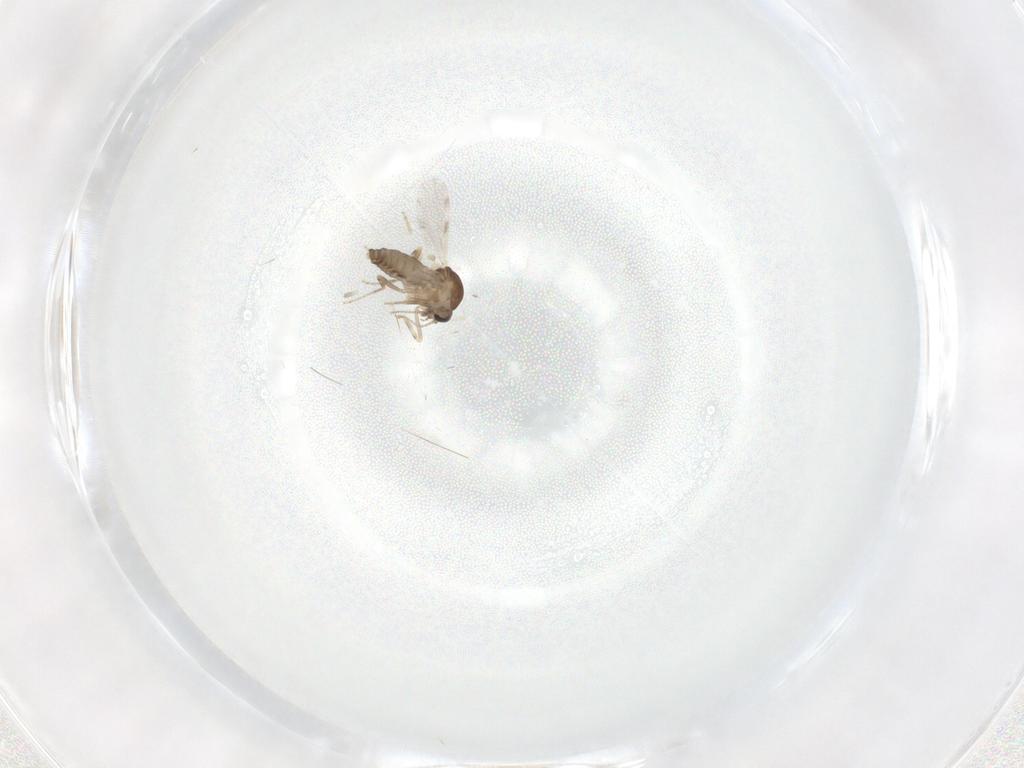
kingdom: Animalia
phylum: Arthropoda
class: Insecta
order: Diptera
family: Ceratopogonidae
